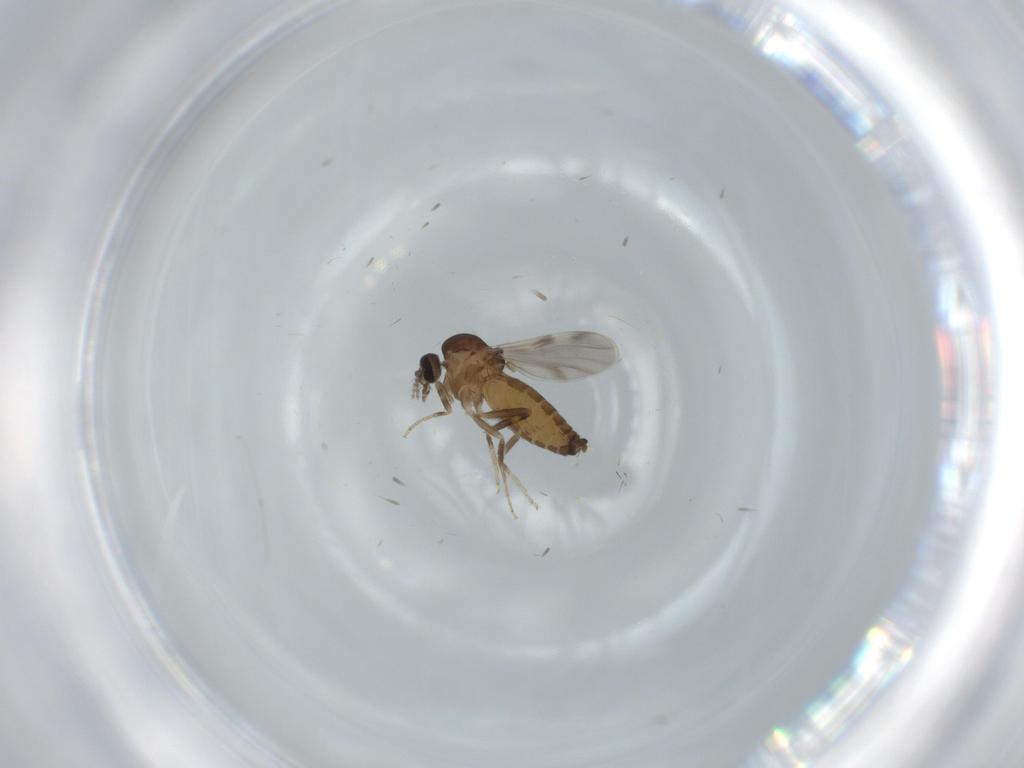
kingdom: Animalia
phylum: Arthropoda
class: Insecta
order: Diptera
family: Ceratopogonidae
